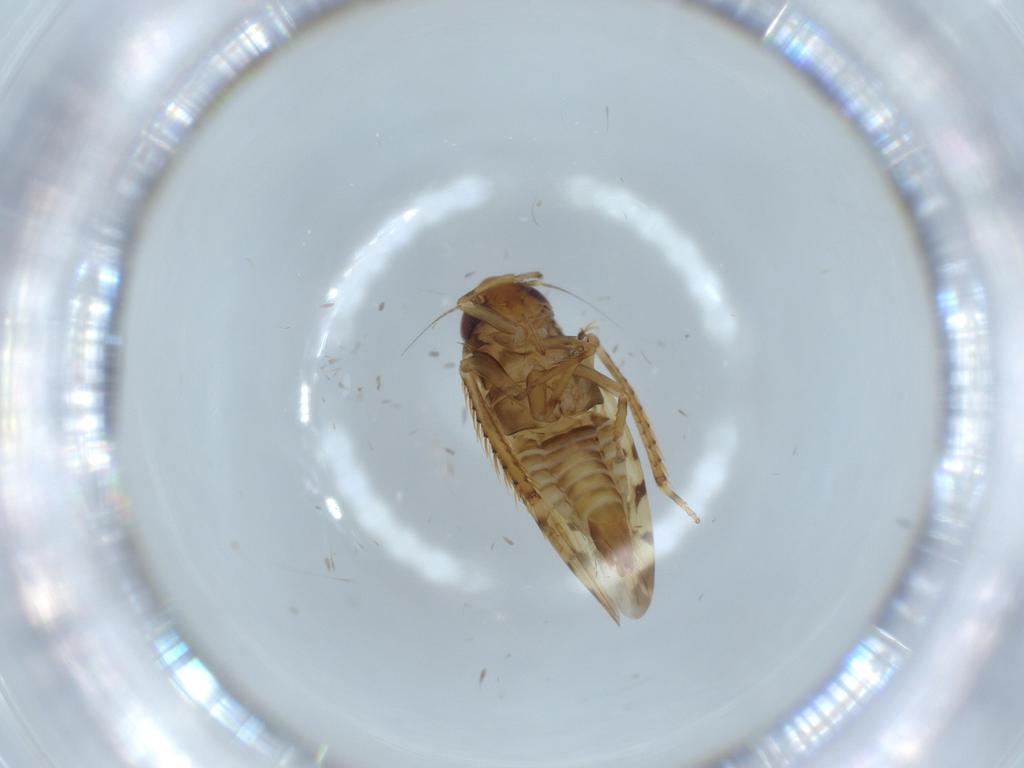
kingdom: Animalia
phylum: Arthropoda
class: Insecta
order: Hemiptera
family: Cicadellidae
